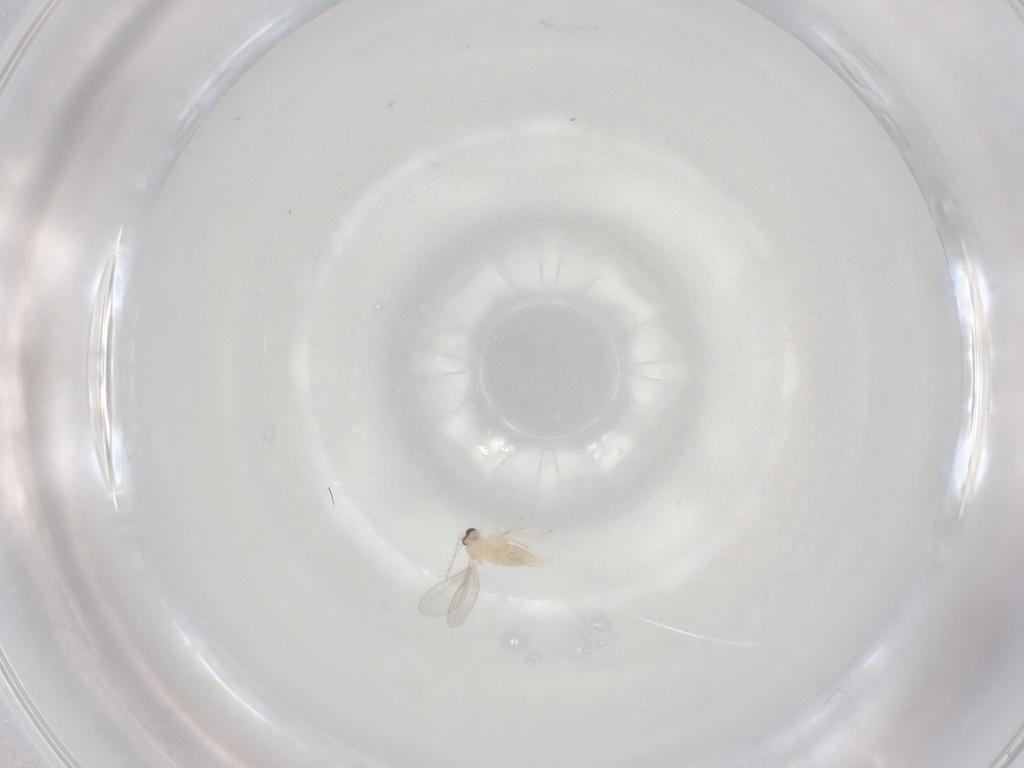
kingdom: Animalia
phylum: Arthropoda
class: Insecta
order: Diptera
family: Cecidomyiidae
